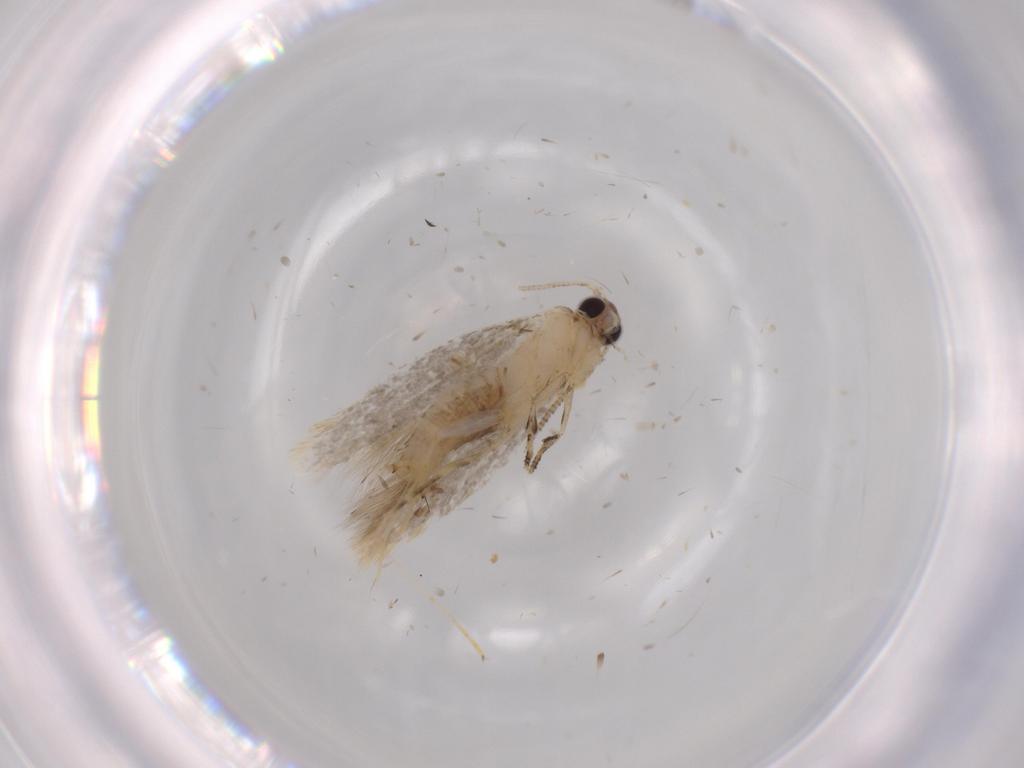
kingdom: Animalia
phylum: Arthropoda
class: Insecta
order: Lepidoptera
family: Tineidae
